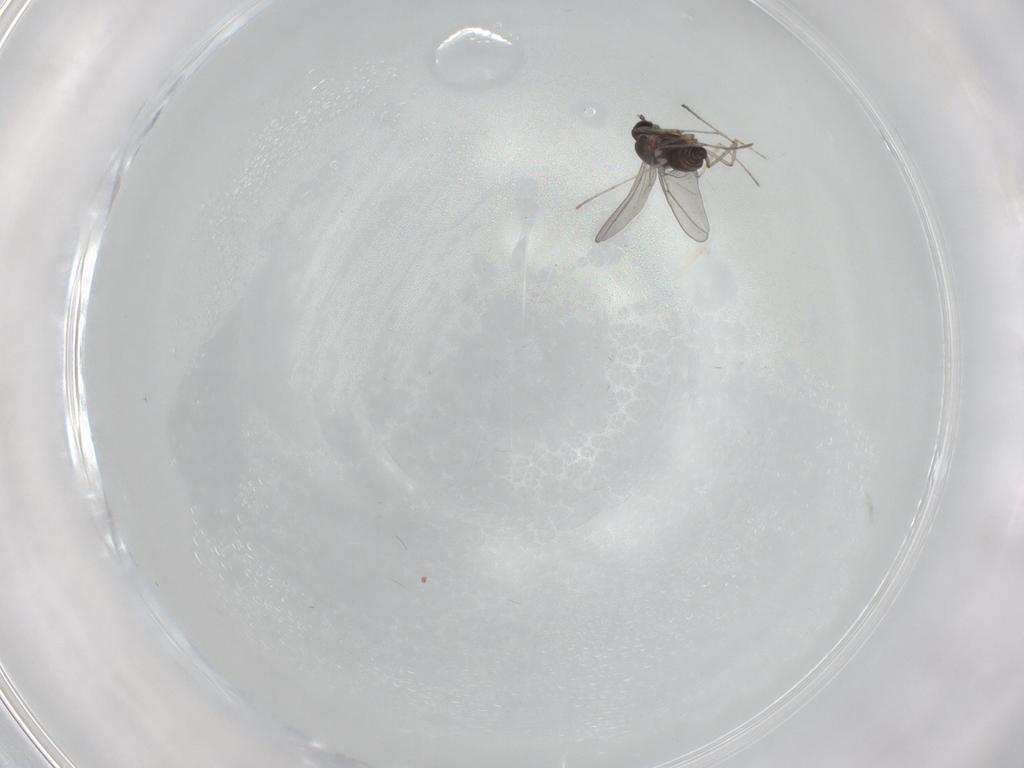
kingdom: Animalia
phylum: Arthropoda
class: Insecta
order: Diptera
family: Cecidomyiidae
